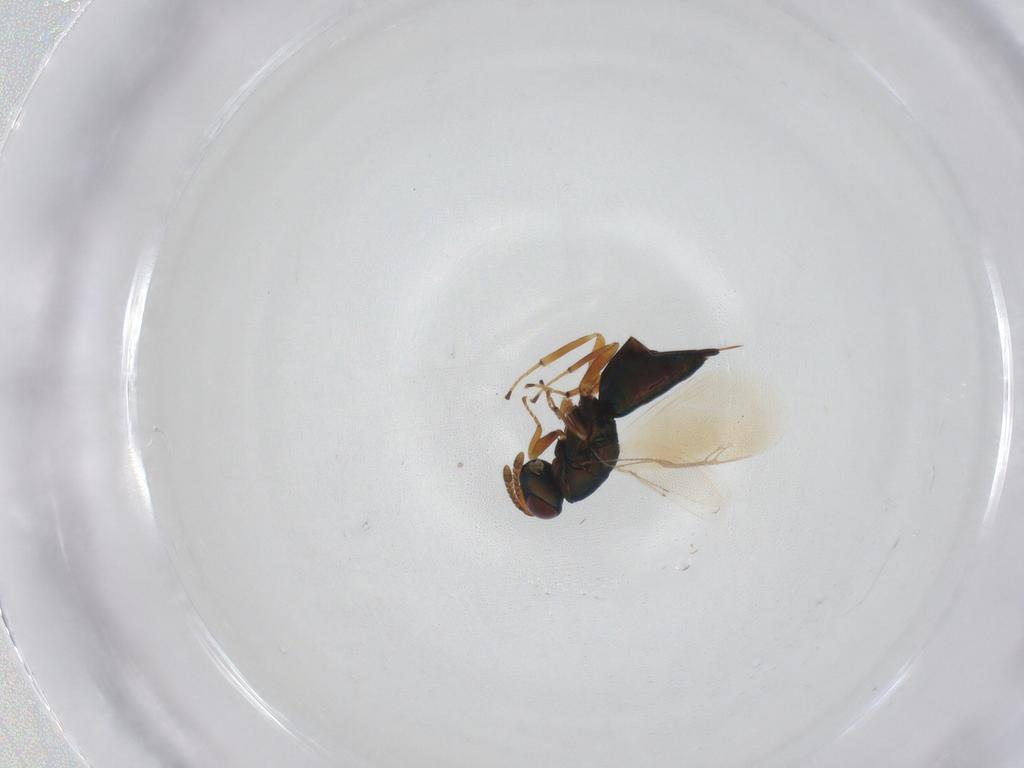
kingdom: Animalia
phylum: Arthropoda
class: Insecta
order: Hymenoptera
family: Pteromalidae
